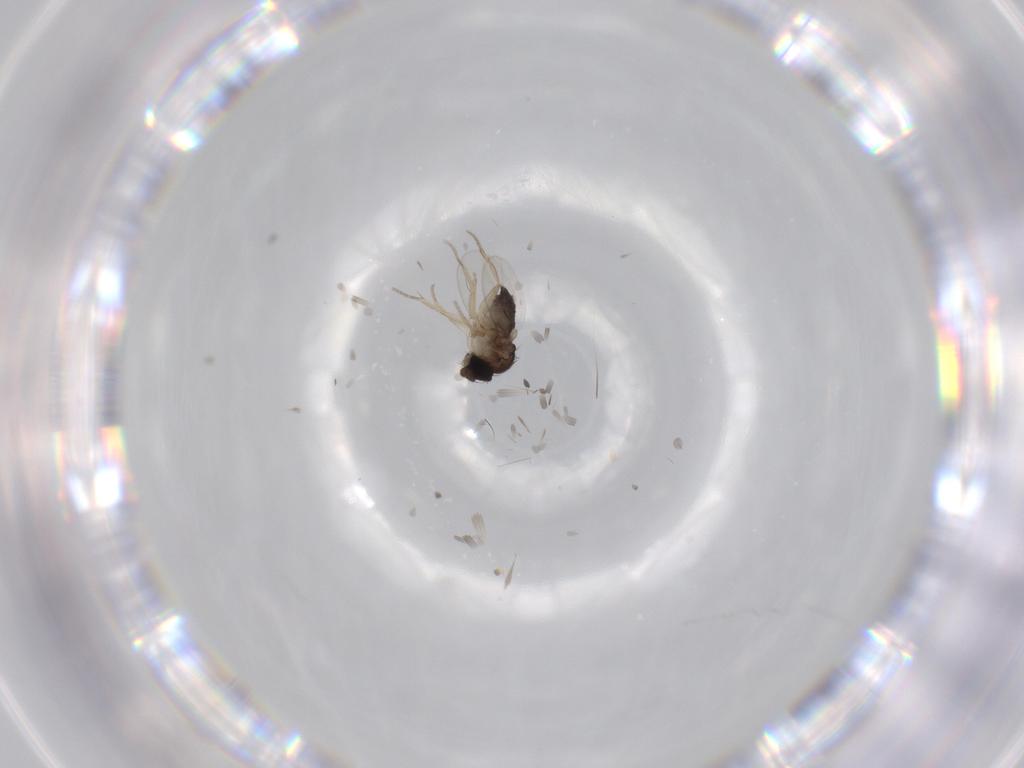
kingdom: Animalia
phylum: Arthropoda
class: Insecta
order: Diptera
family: Phoridae
